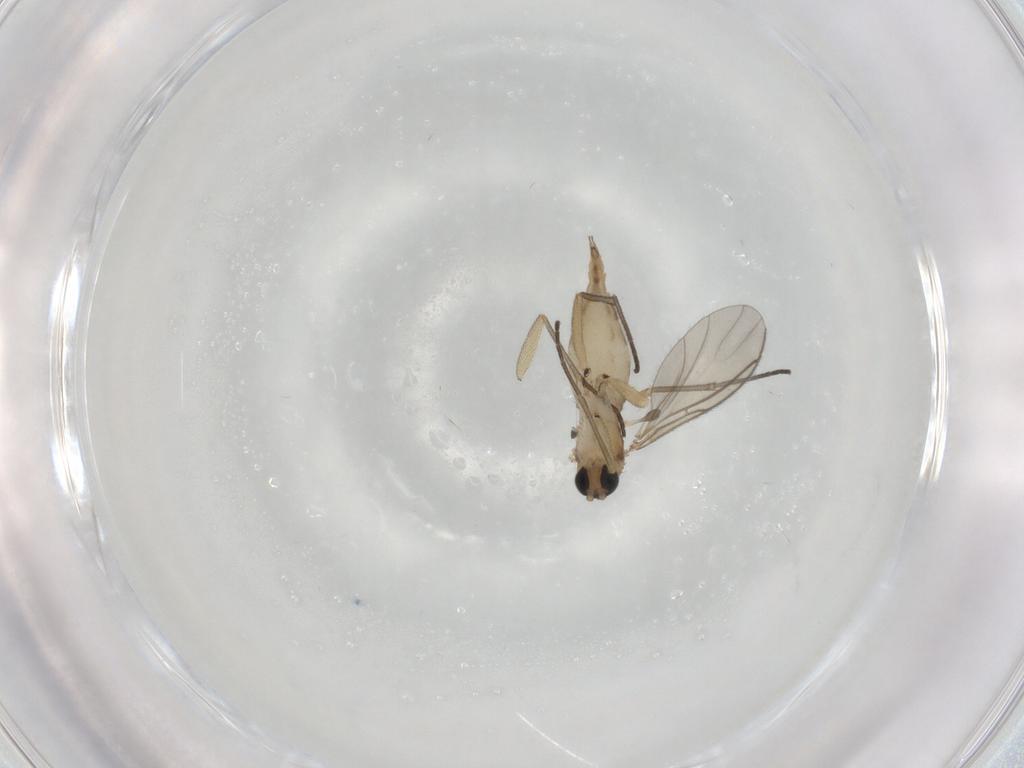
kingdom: Animalia
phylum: Arthropoda
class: Insecta
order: Diptera
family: Sciaridae
